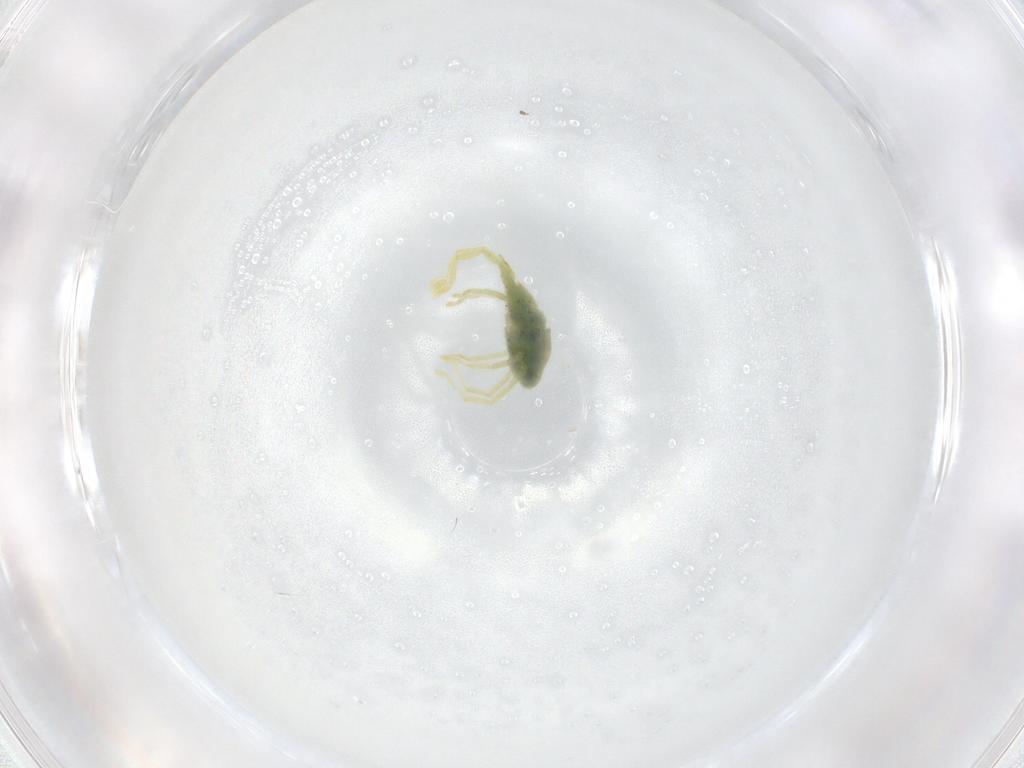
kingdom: Animalia
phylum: Arthropoda
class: Arachnida
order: Trombidiformes
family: Erythraeidae
